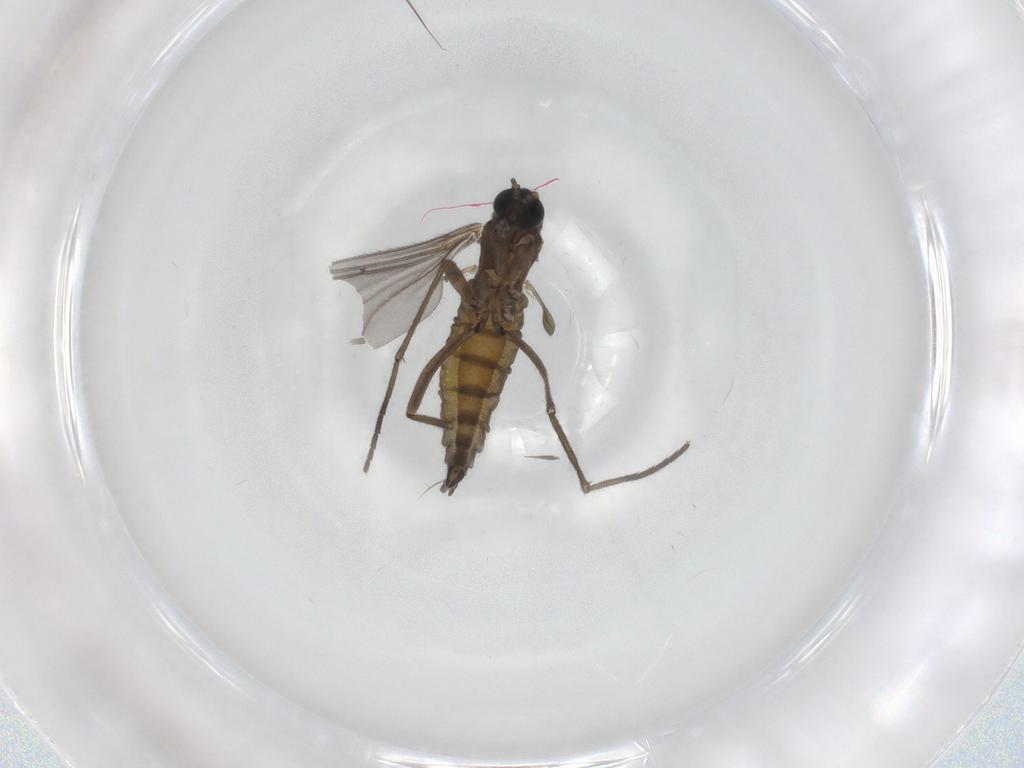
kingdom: Animalia
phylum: Arthropoda
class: Insecta
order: Diptera
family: Sciaridae
